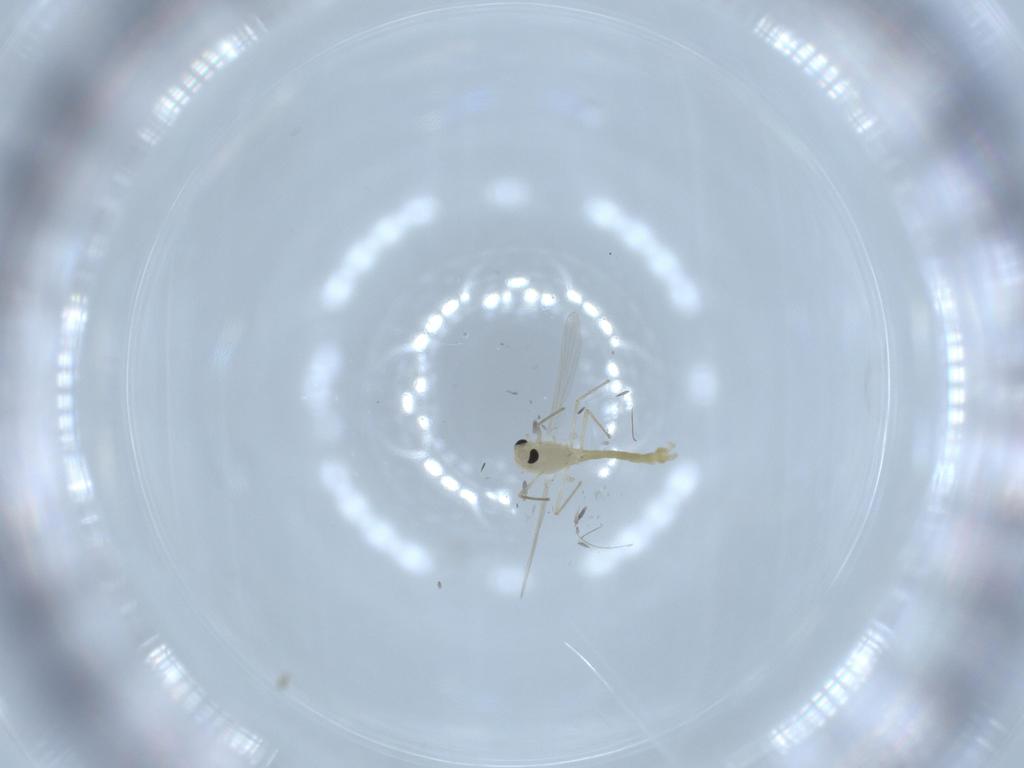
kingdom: Animalia
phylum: Arthropoda
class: Insecta
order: Diptera
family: Chironomidae
